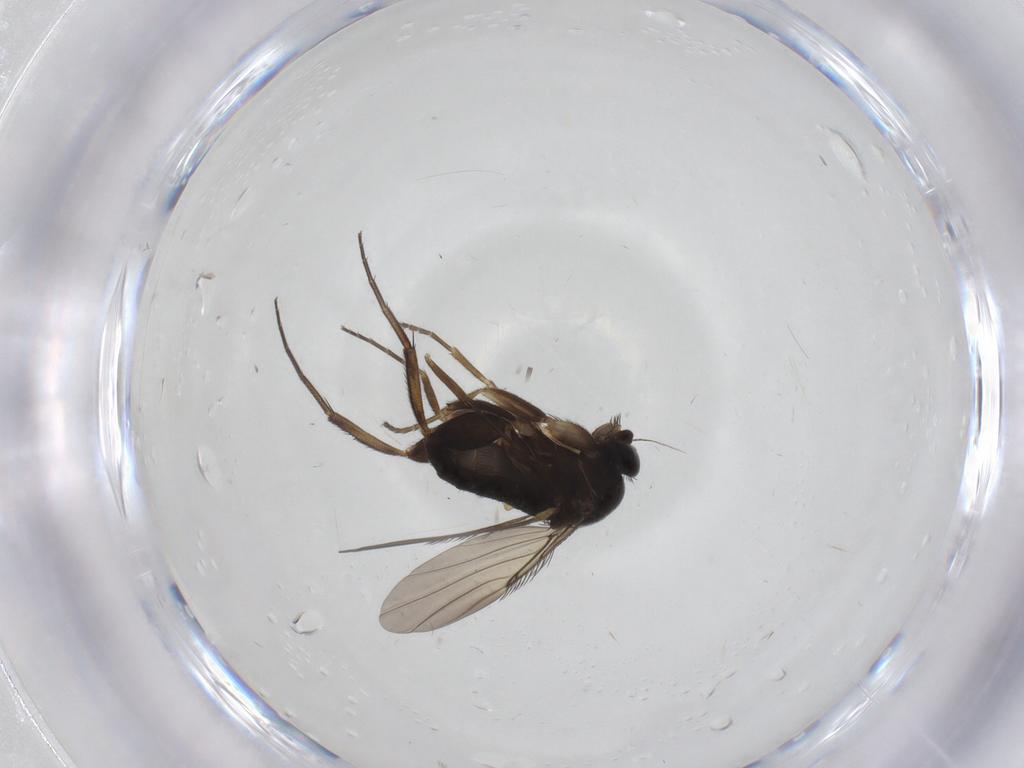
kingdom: Animalia
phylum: Arthropoda
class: Insecta
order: Diptera
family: Phoridae
